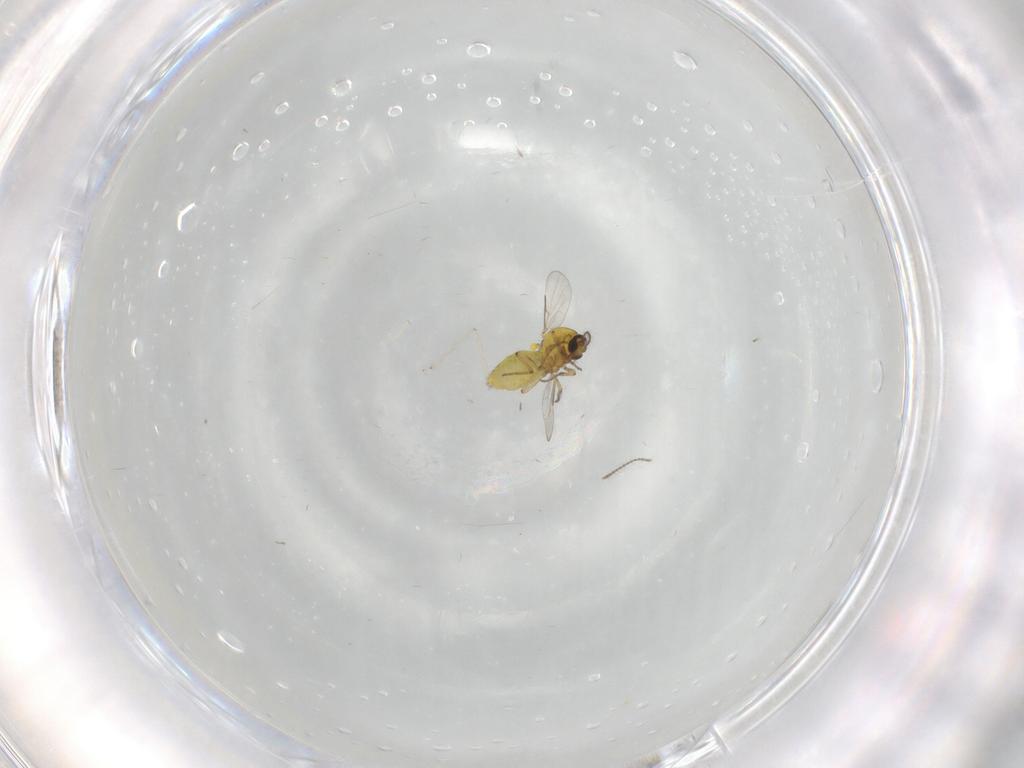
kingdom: Animalia
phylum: Arthropoda
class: Insecta
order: Diptera
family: Ceratopogonidae
